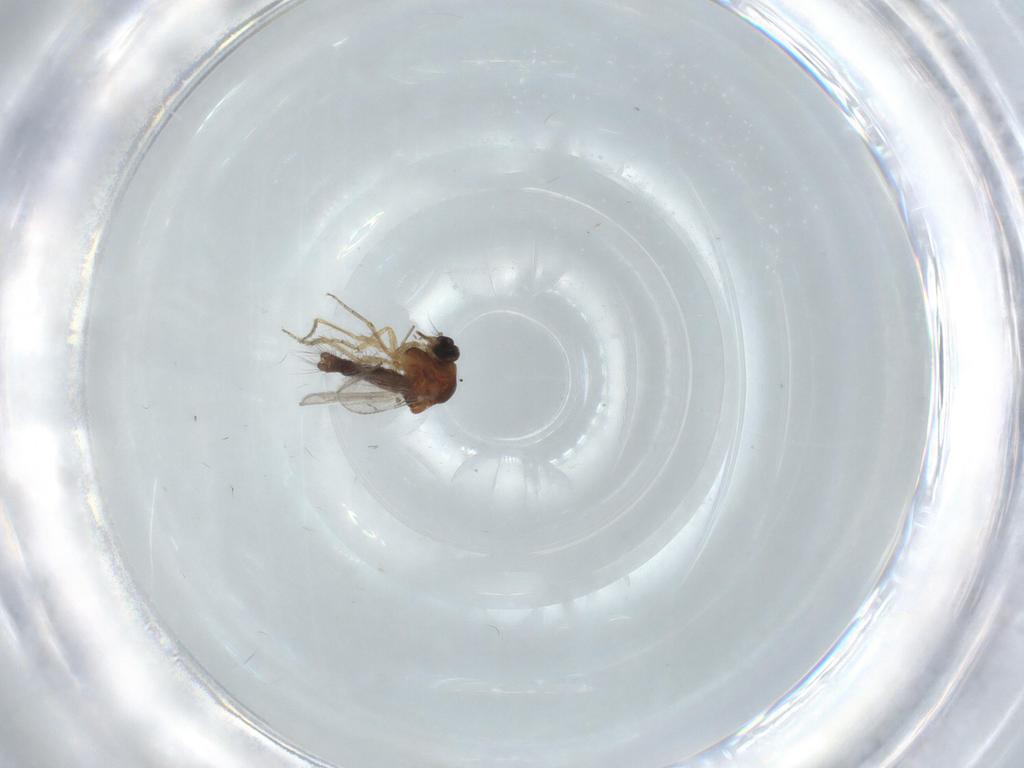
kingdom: Animalia
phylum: Arthropoda
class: Insecta
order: Diptera
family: Ceratopogonidae
